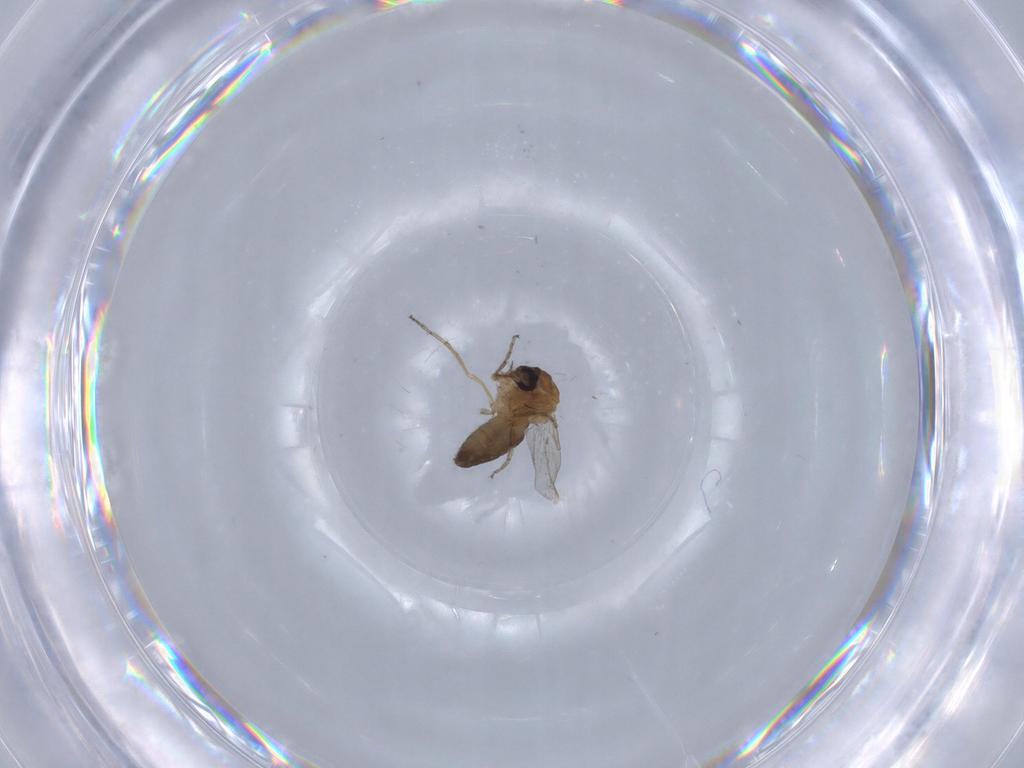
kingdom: Animalia
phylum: Arthropoda
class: Insecta
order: Diptera
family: Ceratopogonidae
